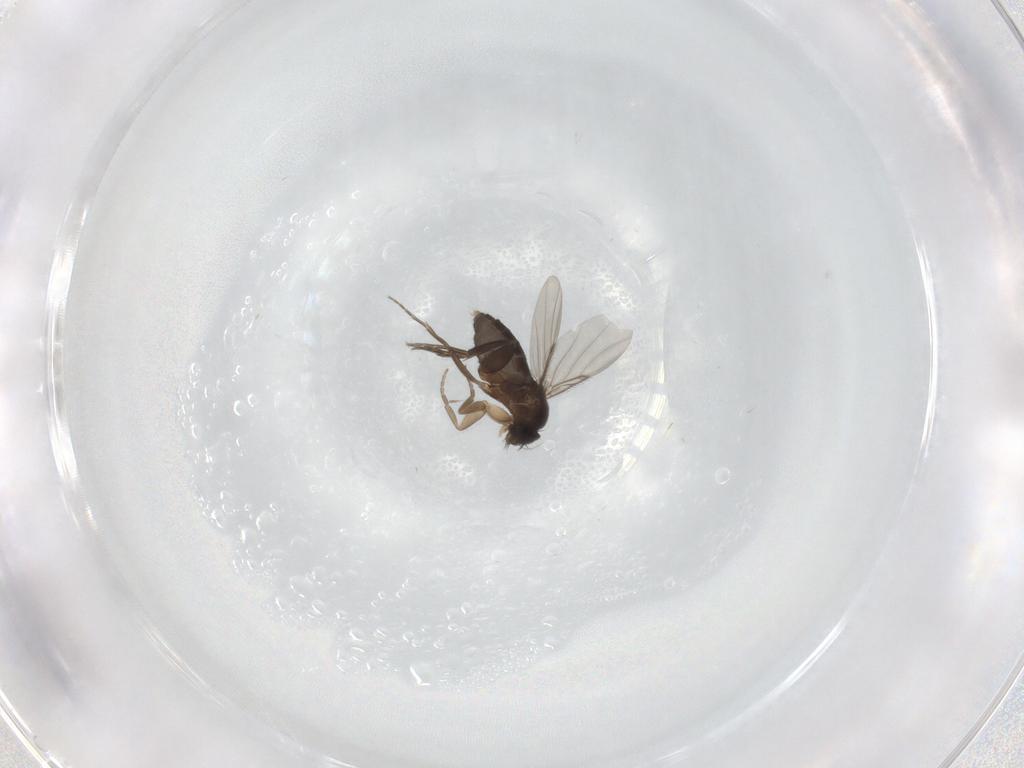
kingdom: Animalia
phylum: Arthropoda
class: Insecta
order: Diptera
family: Phoridae
